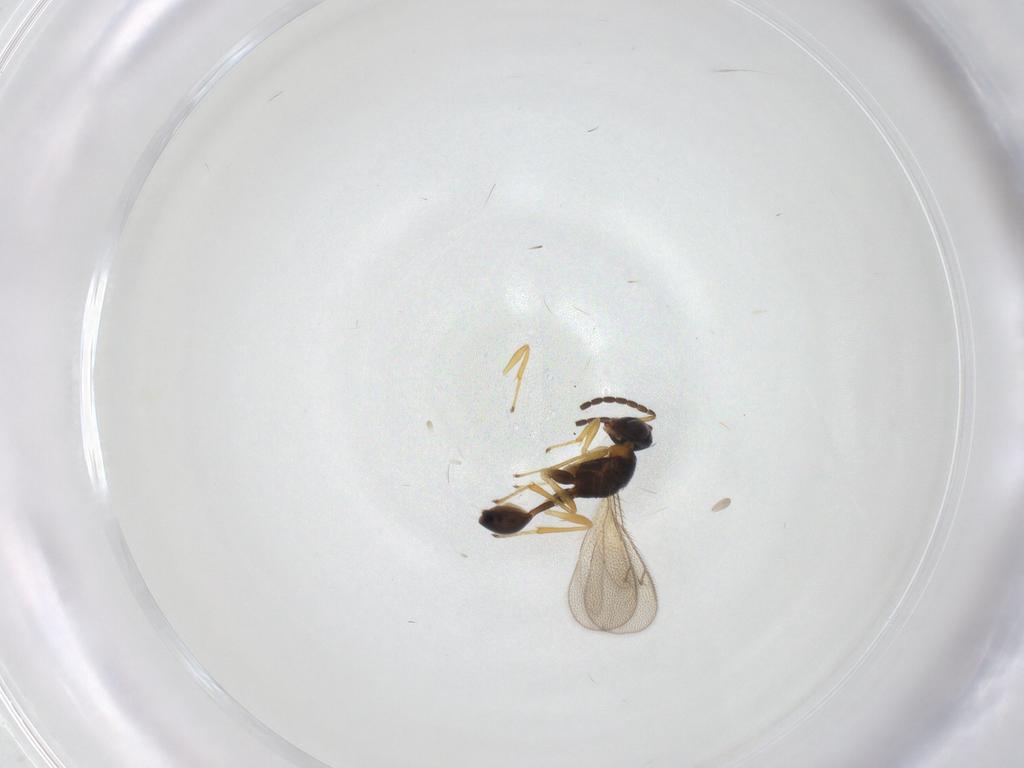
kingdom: Animalia
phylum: Arthropoda
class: Insecta
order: Hymenoptera
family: Diparidae
